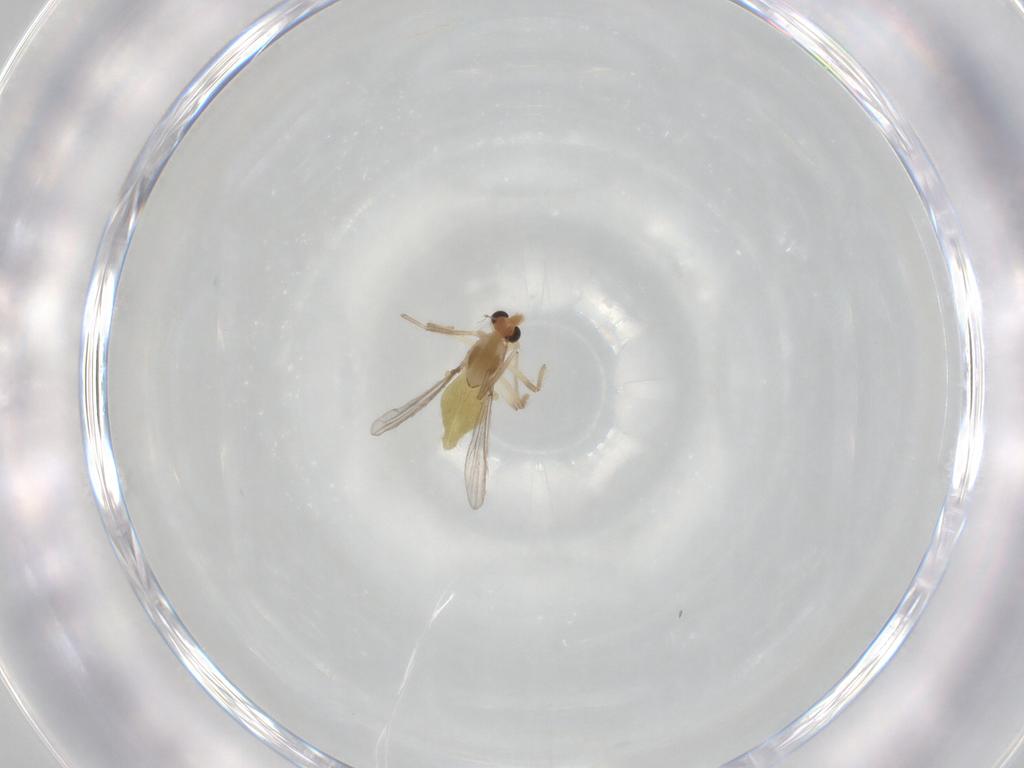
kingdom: Animalia
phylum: Arthropoda
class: Insecta
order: Diptera
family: Chironomidae
